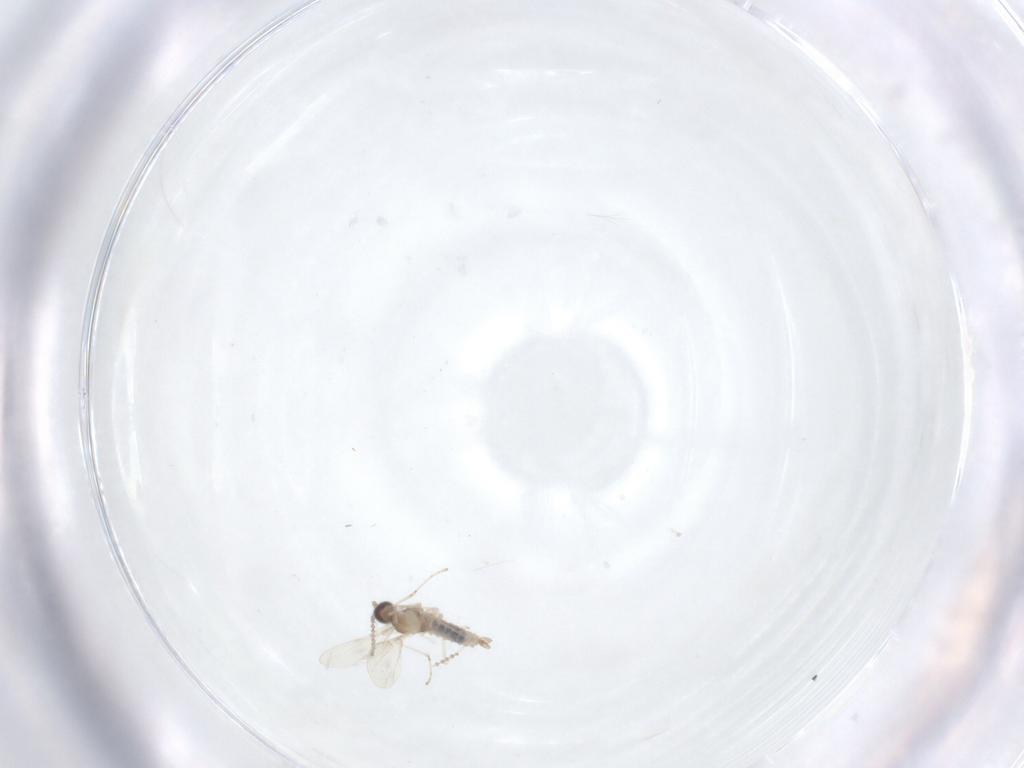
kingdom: Animalia
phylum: Arthropoda
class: Insecta
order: Diptera
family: Cecidomyiidae
